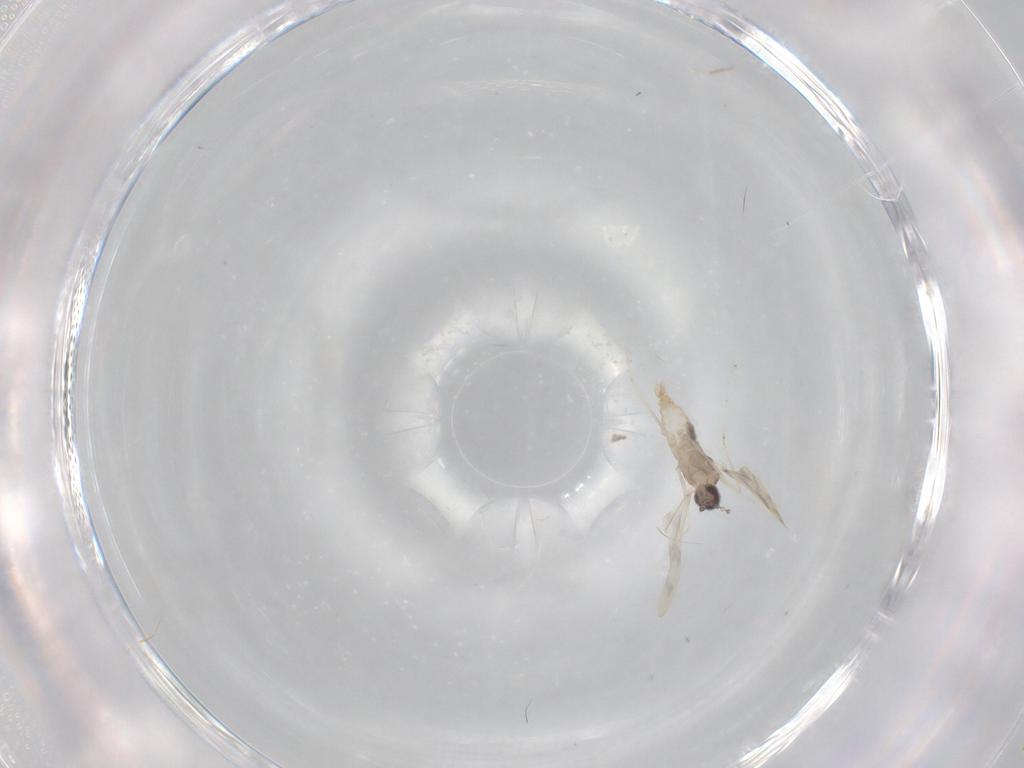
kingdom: Animalia
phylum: Arthropoda
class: Insecta
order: Diptera
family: Cecidomyiidae
